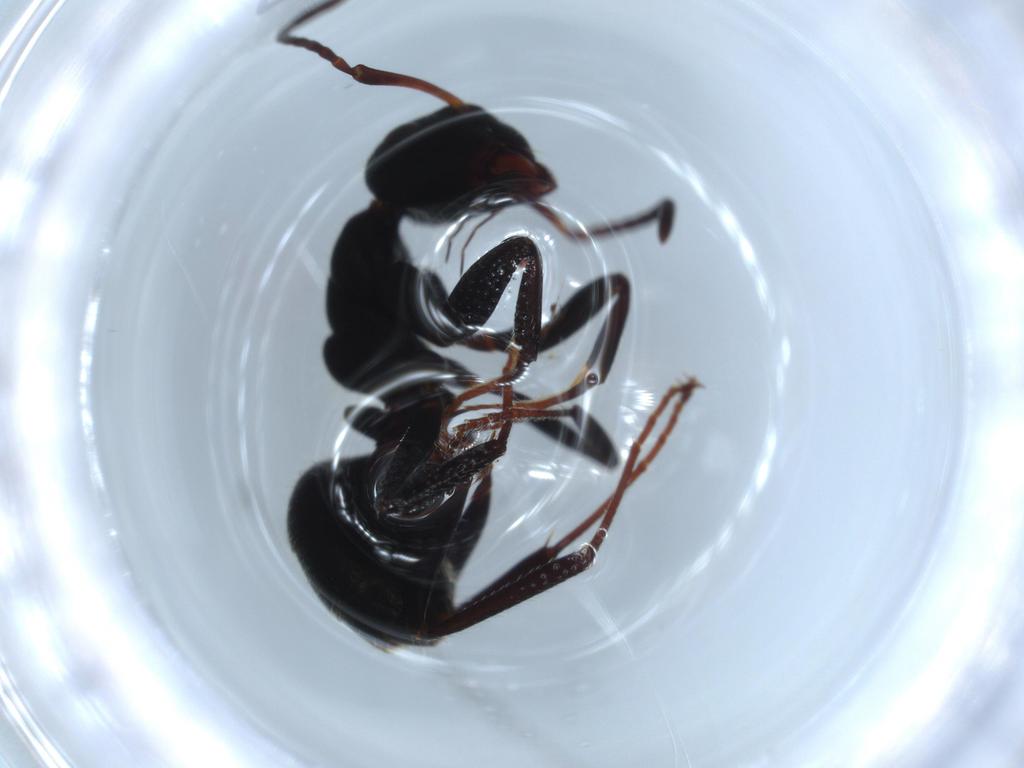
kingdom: Animalia
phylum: Arthropoda
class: Insecta
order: Hymenoptera
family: Formicidae
